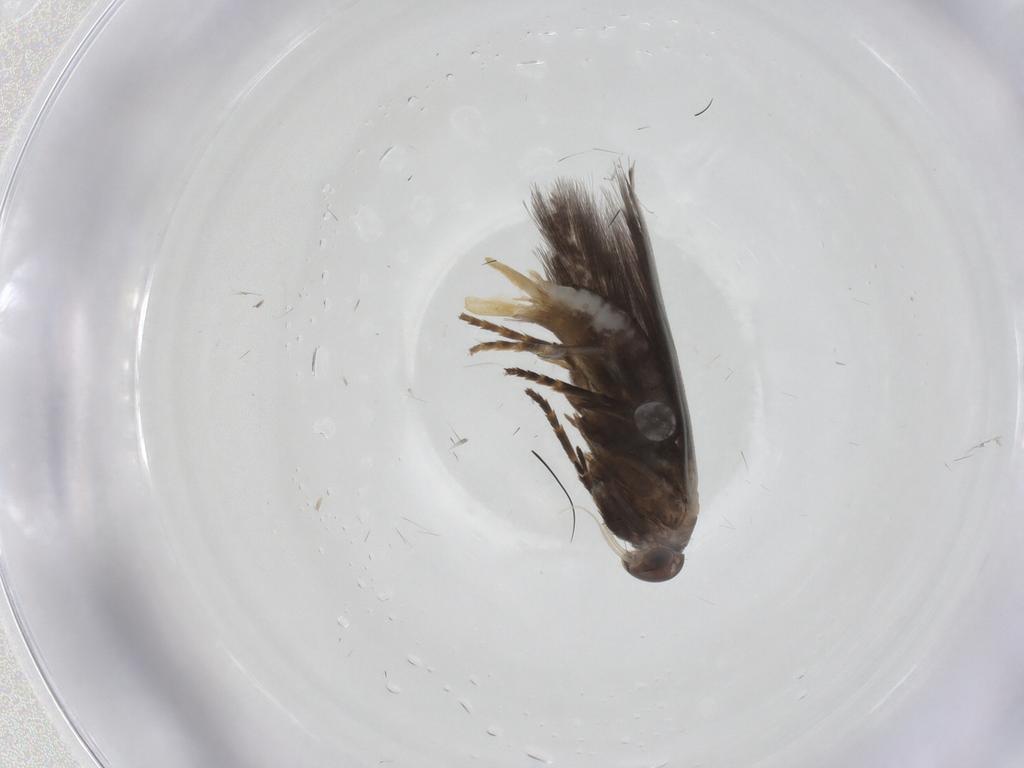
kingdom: Animalia
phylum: Arthropoda
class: Insecta
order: Lepidoptera
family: Elachistidae
